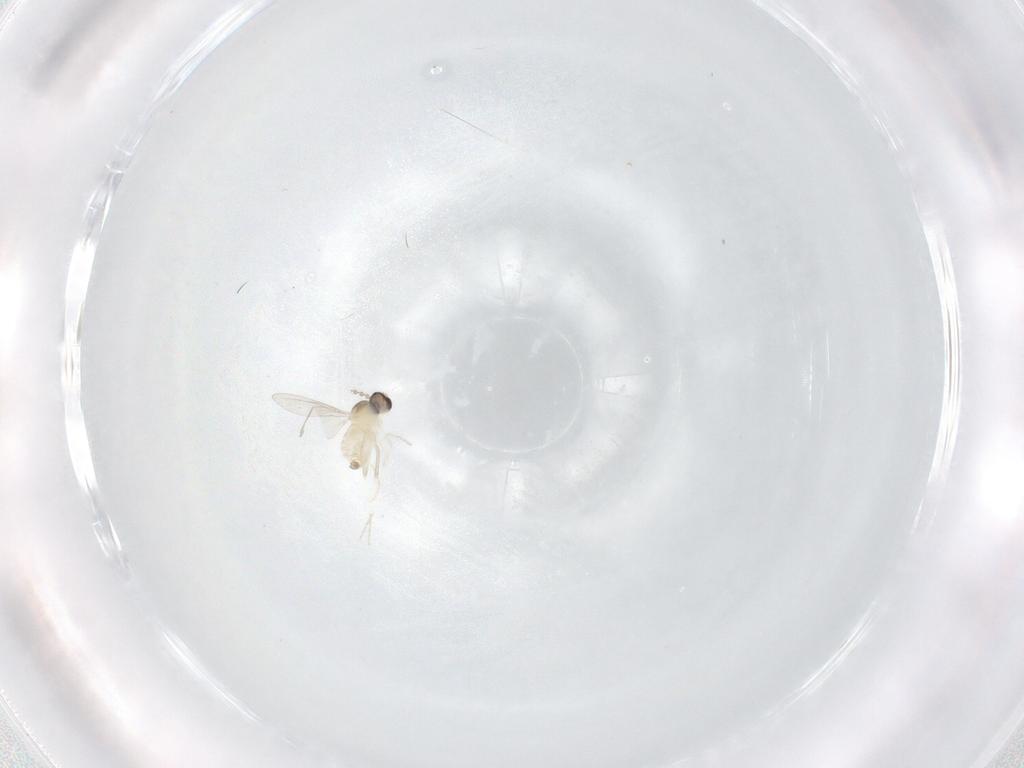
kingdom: Animalia
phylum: Arthropoda
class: Insecta
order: Diptera
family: Cecidomyiidae
